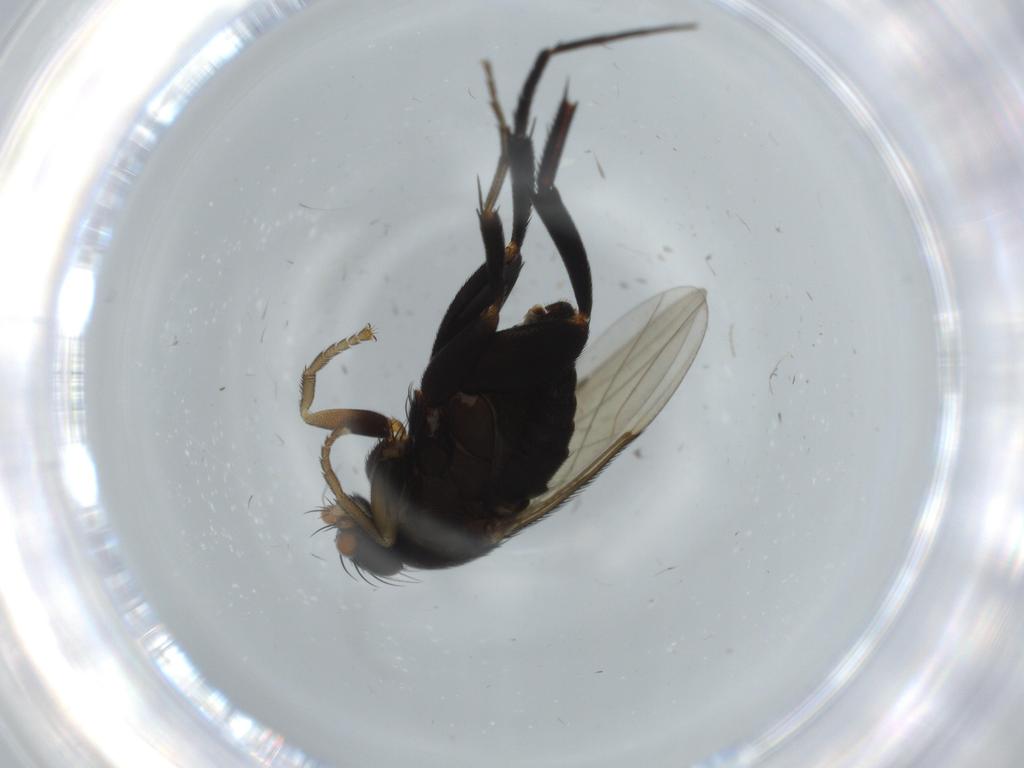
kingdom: Animalia
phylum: Arthropoda
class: Insecta
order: Diptera
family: Phoridae
